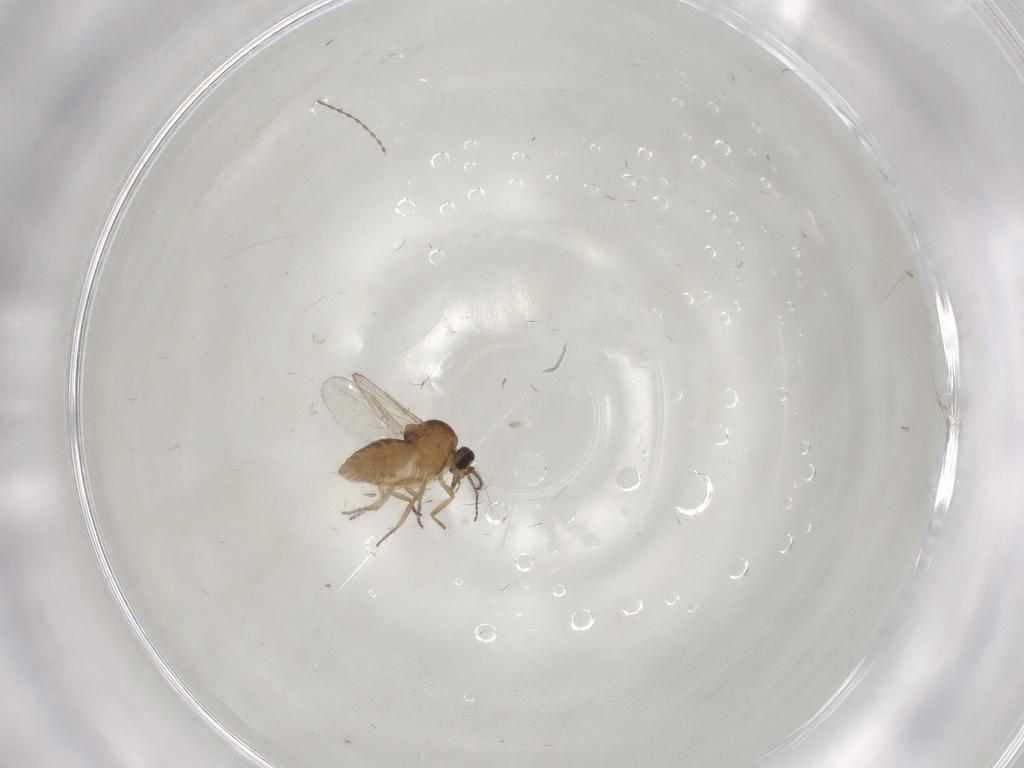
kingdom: Animalia
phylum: Arthropoda
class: Insecta
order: Diptera
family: Ceratopogonidae
